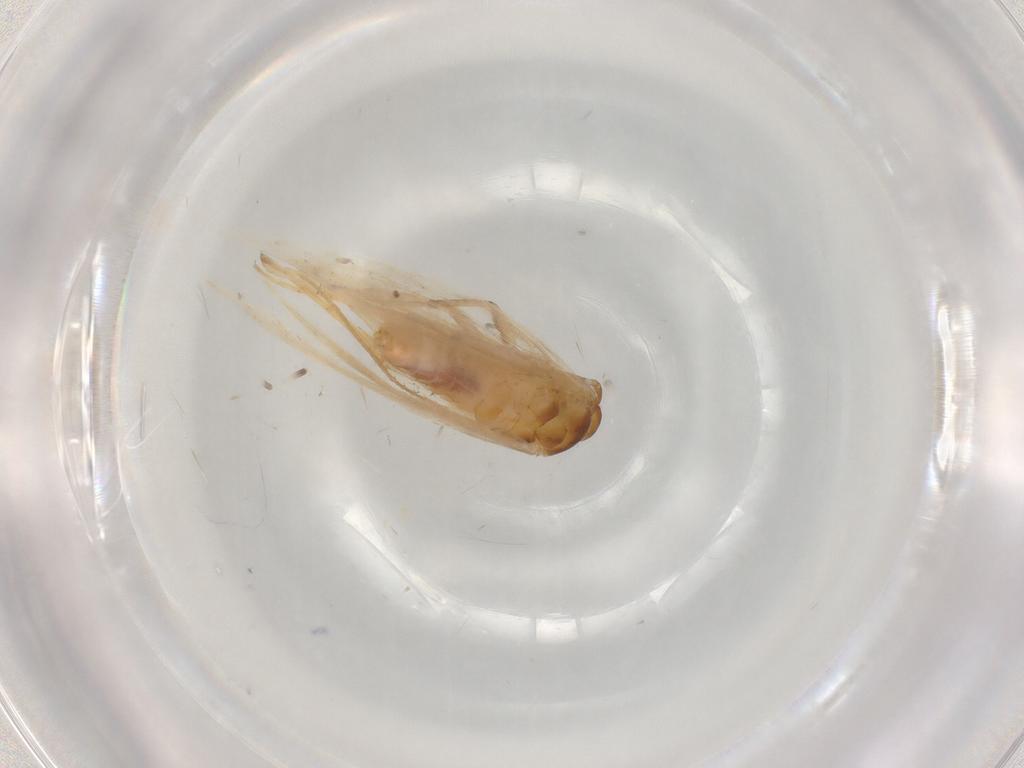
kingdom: Animalia
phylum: Arthropoda
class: Insecta
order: Lepidoptera
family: Gelechiidae
